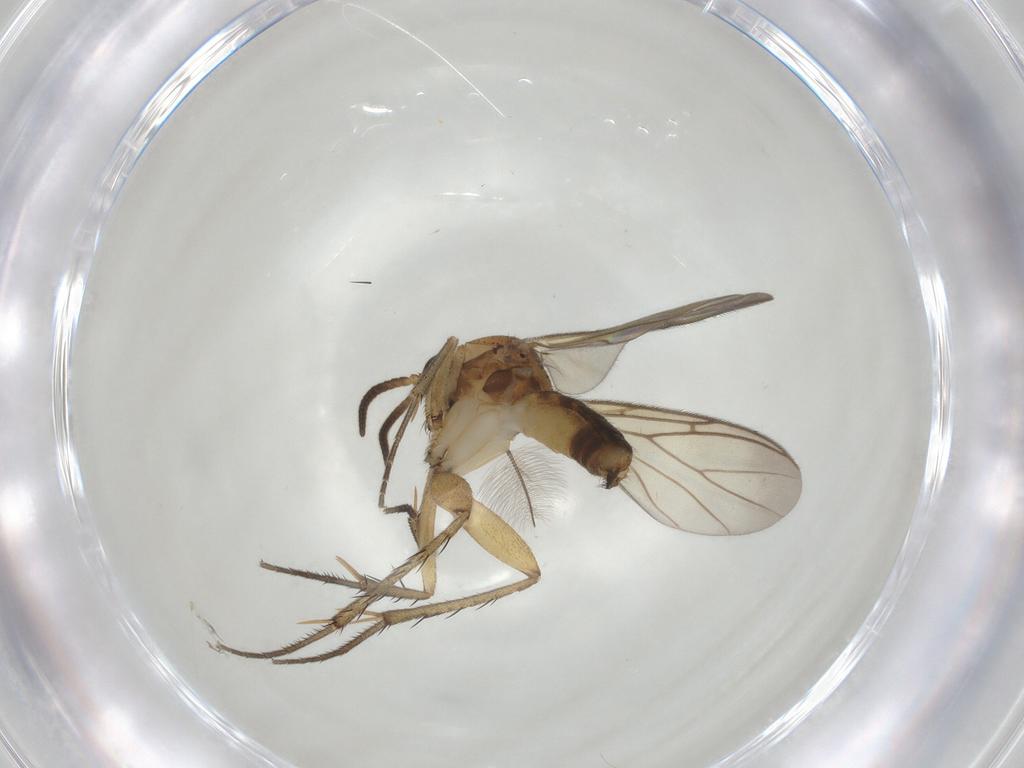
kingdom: Animalia
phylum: Arthropoda
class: Insecta
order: Diptera
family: Mycetophilidae
